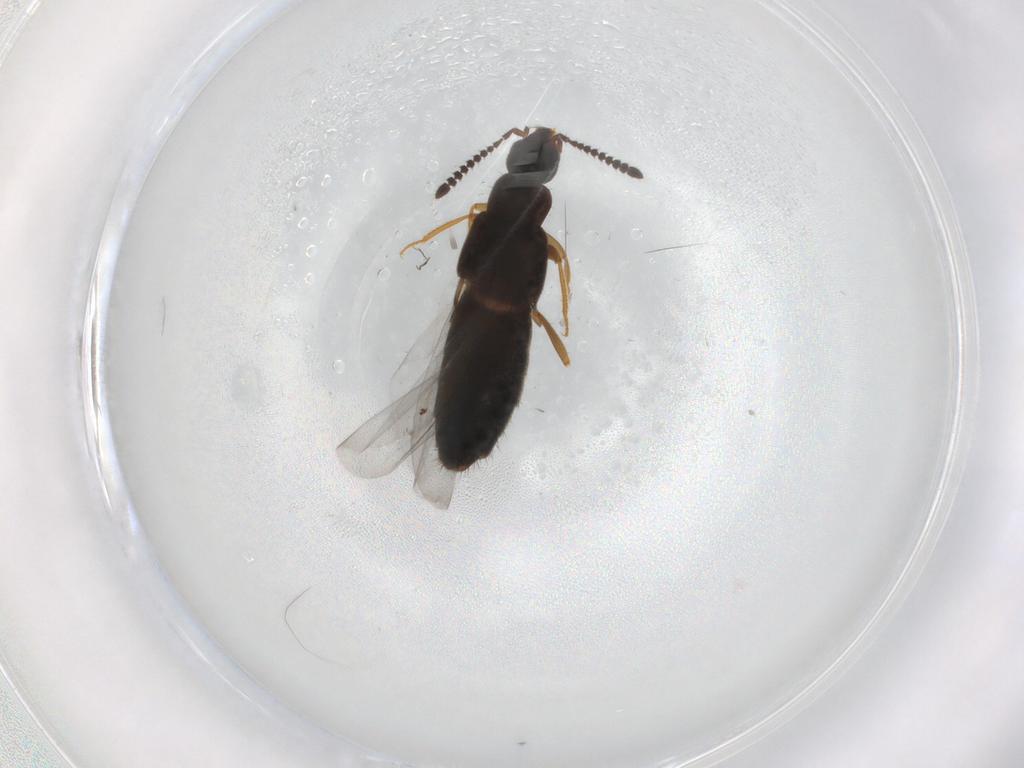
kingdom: Animalia
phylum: Arthropoda
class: Insecta
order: Coleoptera
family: Staphylinidae
